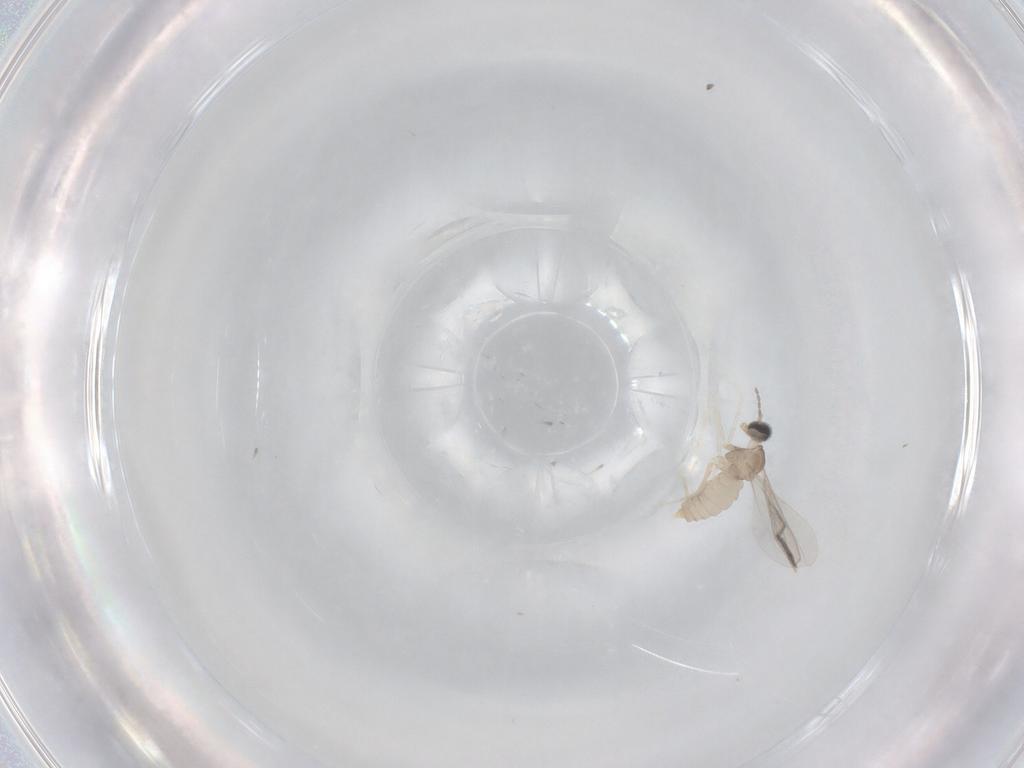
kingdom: Animalia
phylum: Arthropoda
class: Insecta
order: Diptera
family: Cecidomyiidae
